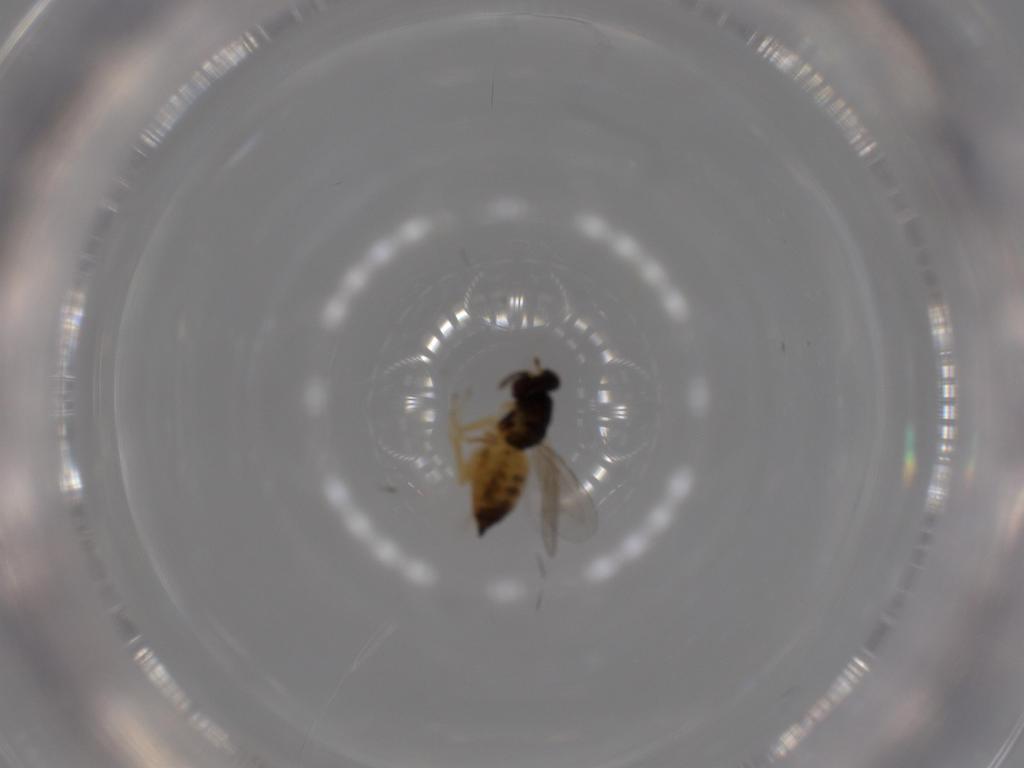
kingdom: Animalia
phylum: Arthropoda
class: Insecta
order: Hymenoptera
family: Eulophidae
